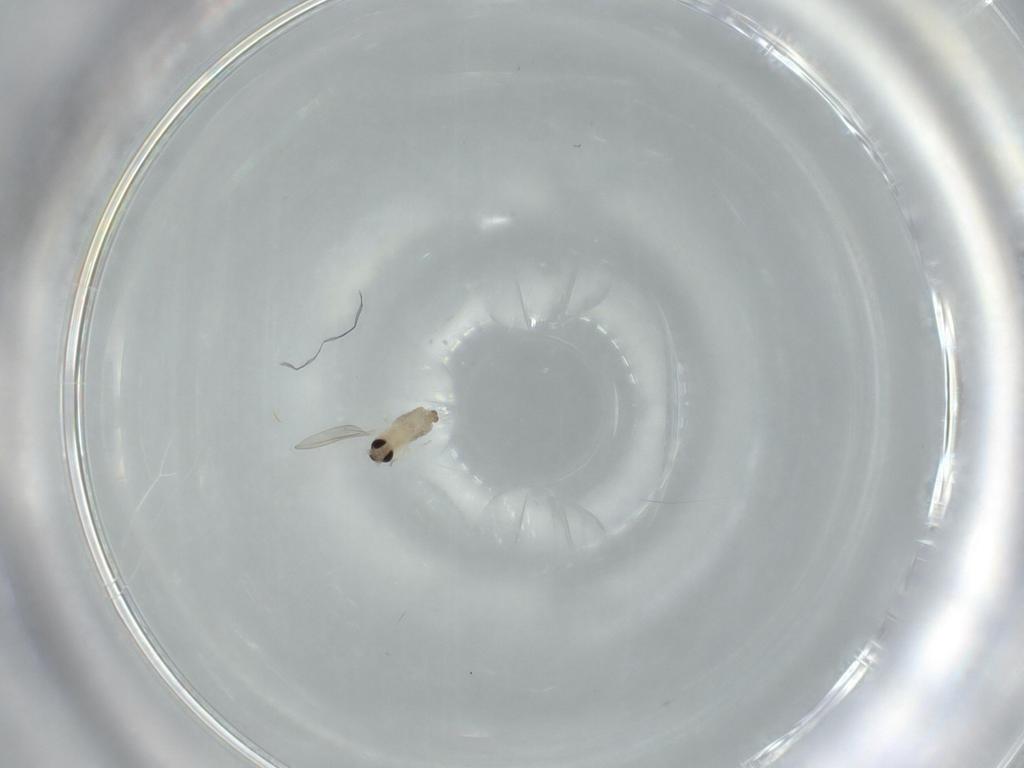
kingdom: Animalia
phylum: Arthropoda
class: Insecta
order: Diptera
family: Cecidomyiidae
